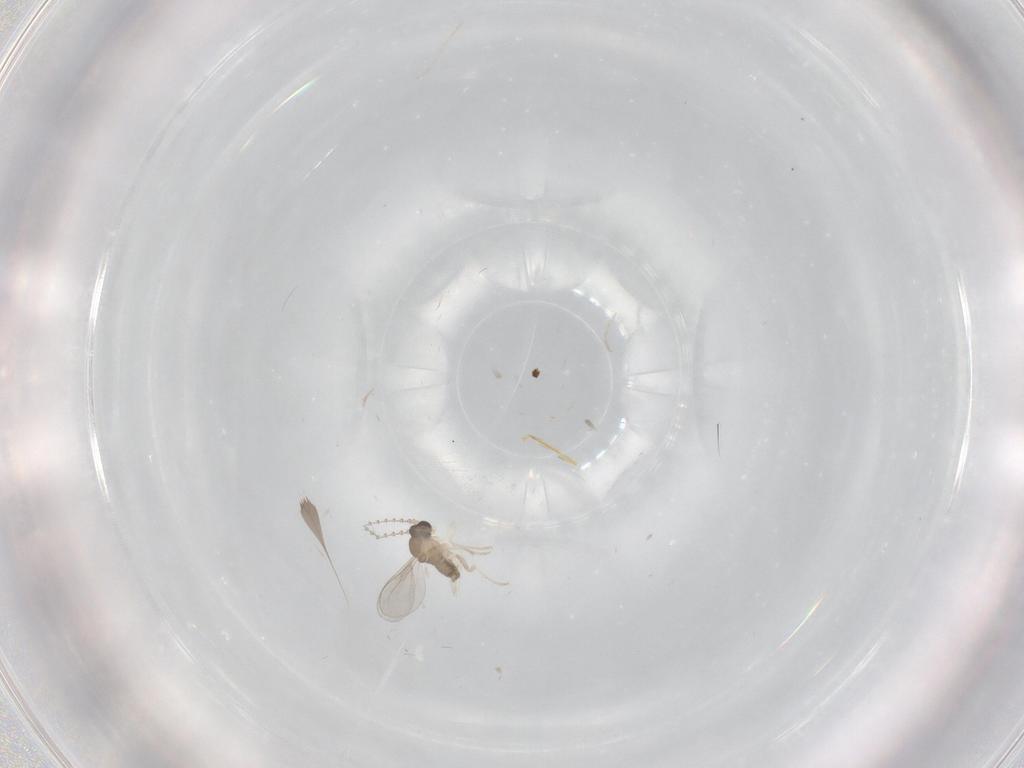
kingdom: Animalia
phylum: Arthropoda
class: Insecta
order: Diptera
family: Cecidomyiidae
